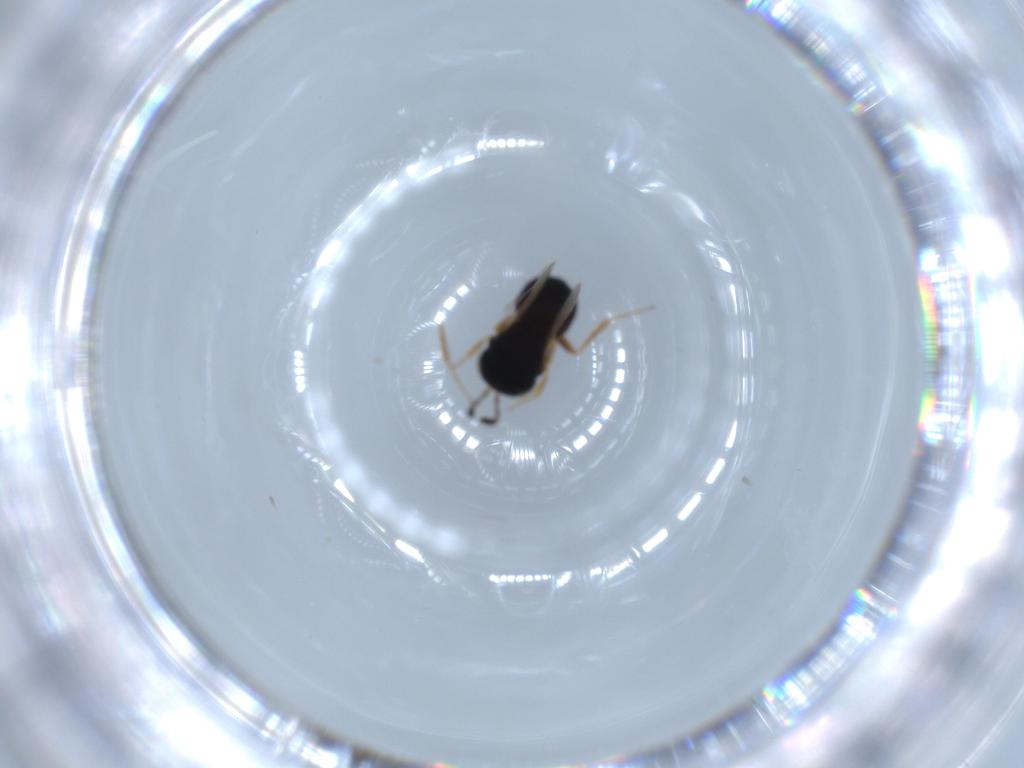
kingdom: Animalia
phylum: Arthropoda
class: Insecta
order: Hymenoptera
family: Scelionidae
